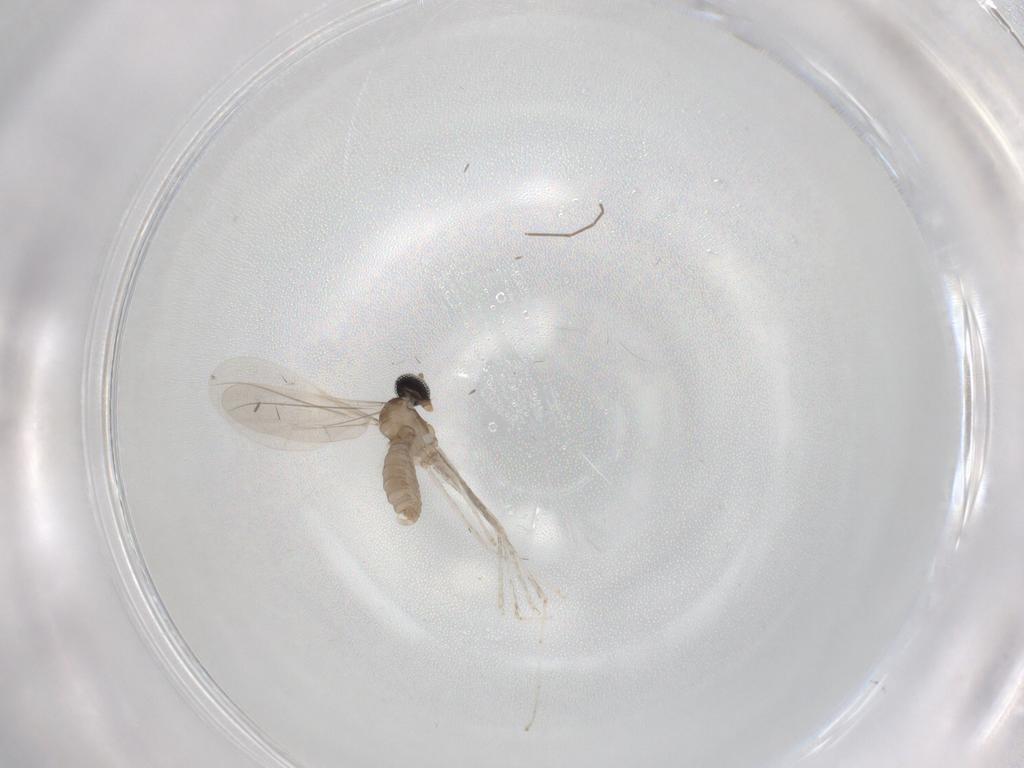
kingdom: Animalia
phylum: Arthropoda
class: Insecta
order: Diptera
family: Cecidomyiidae
